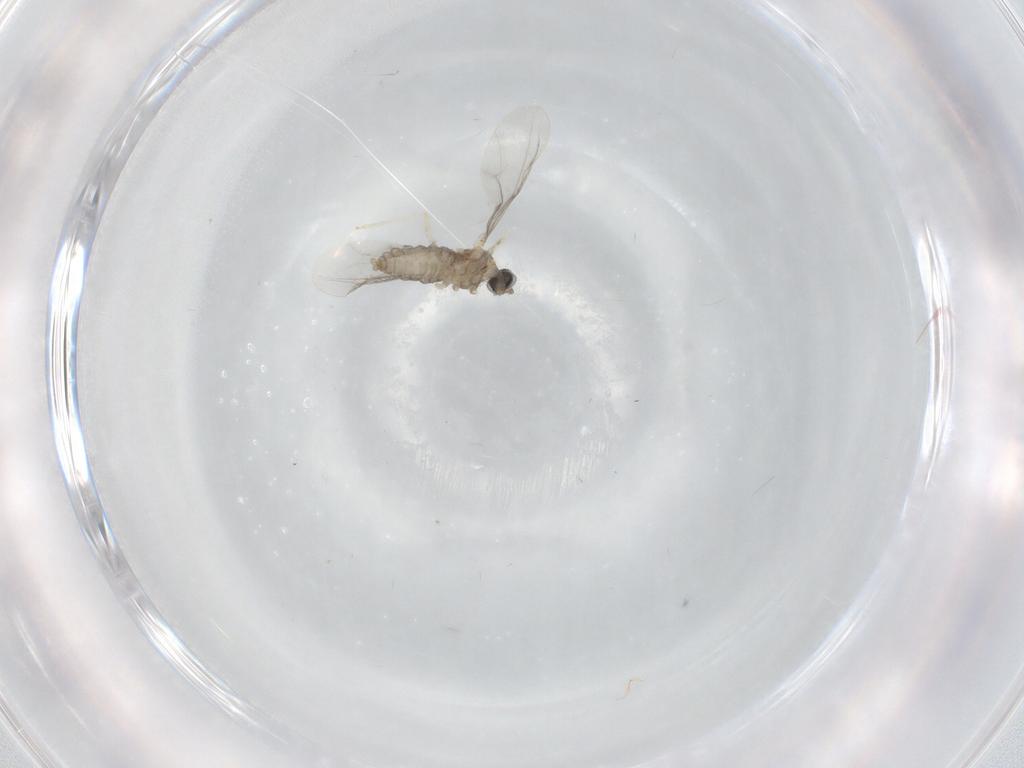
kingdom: Animalia
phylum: Arthropoda
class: Insecta
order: Diptera
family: Cecidomyiidae
